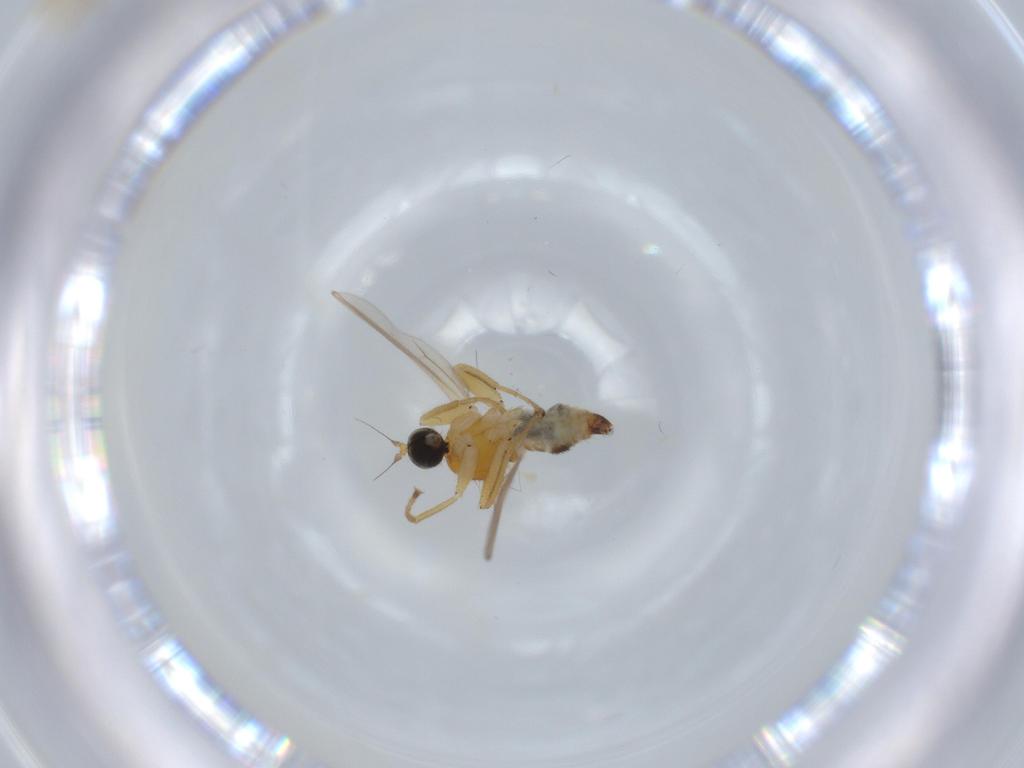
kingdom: Animalia
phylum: Arthropoda
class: Insecta
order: Diptera
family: Hybotidae
